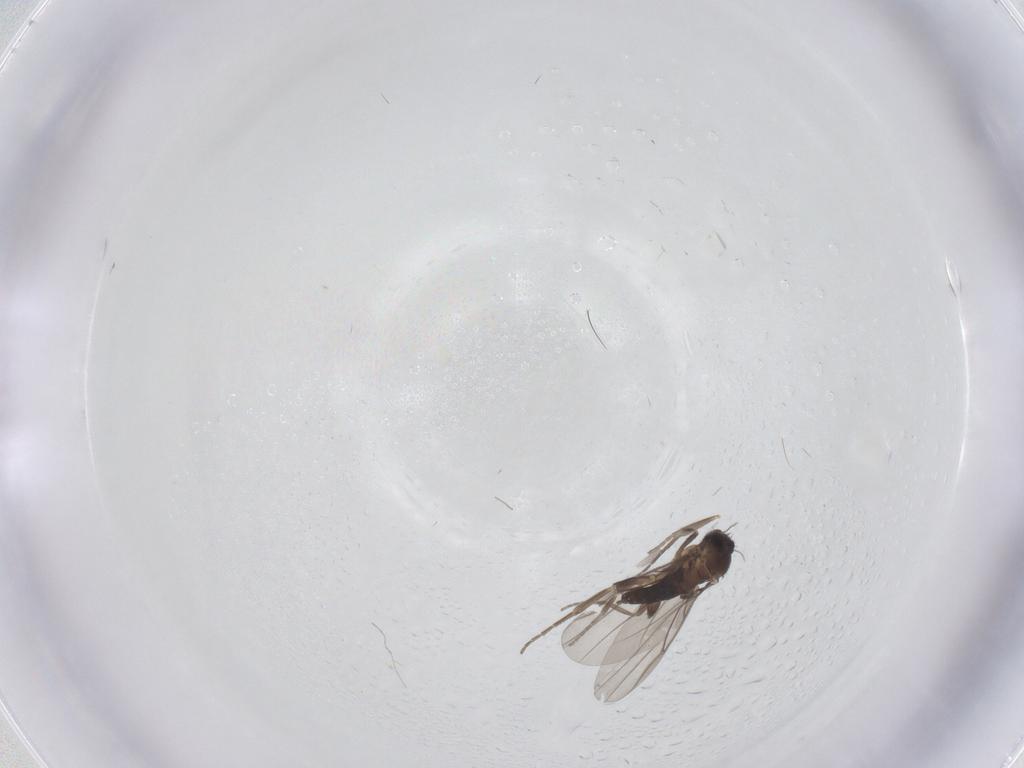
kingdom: Animalia
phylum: Arthropoda
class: Insecta
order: Diptera
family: Psychodidae
